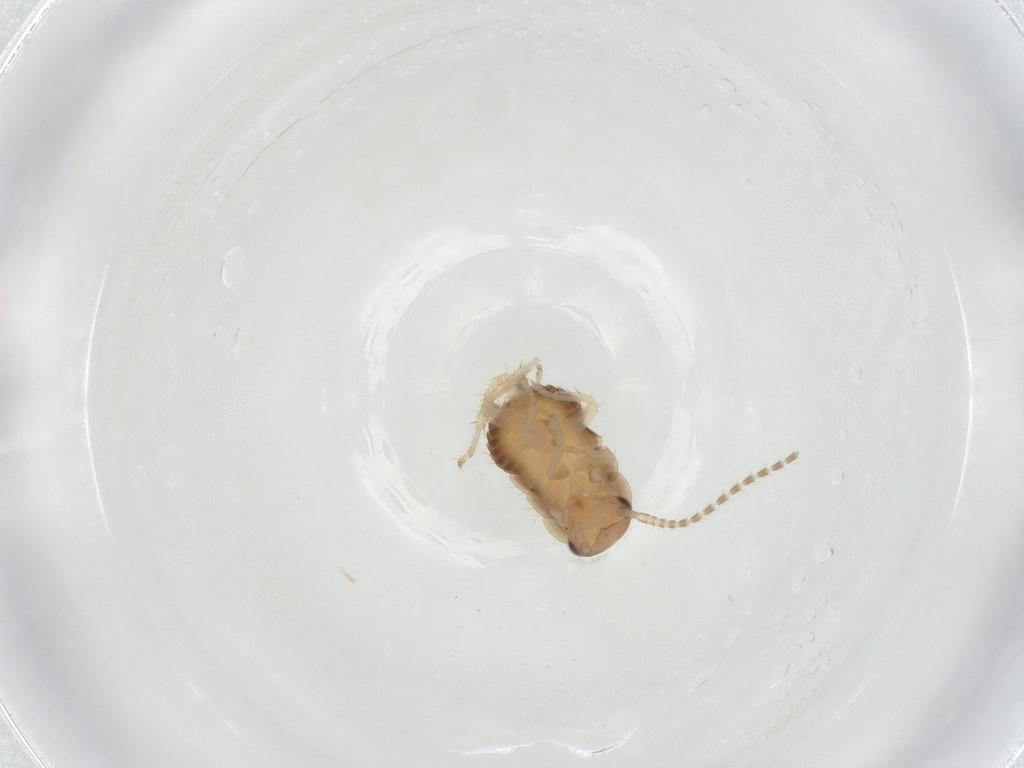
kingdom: Animalia
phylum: Arthropoda
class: Insecta
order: Blattodea
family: Ectobiidae
